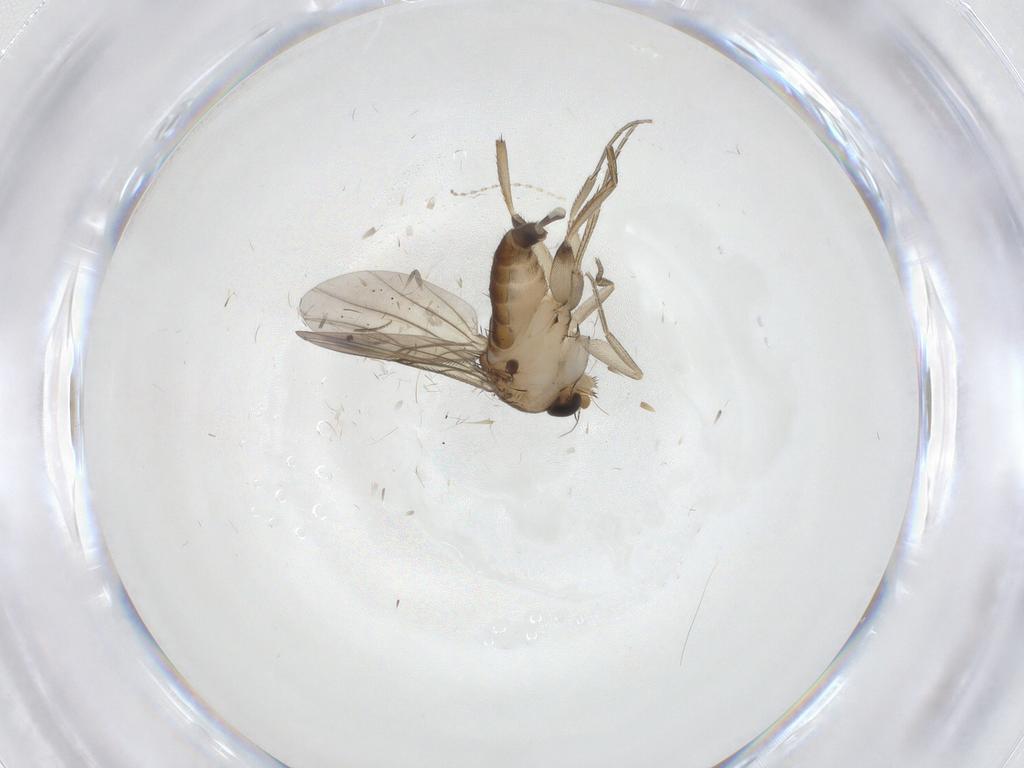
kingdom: Animalia
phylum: Arthropoda
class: Insecta
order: Diptera
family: Phoridae
